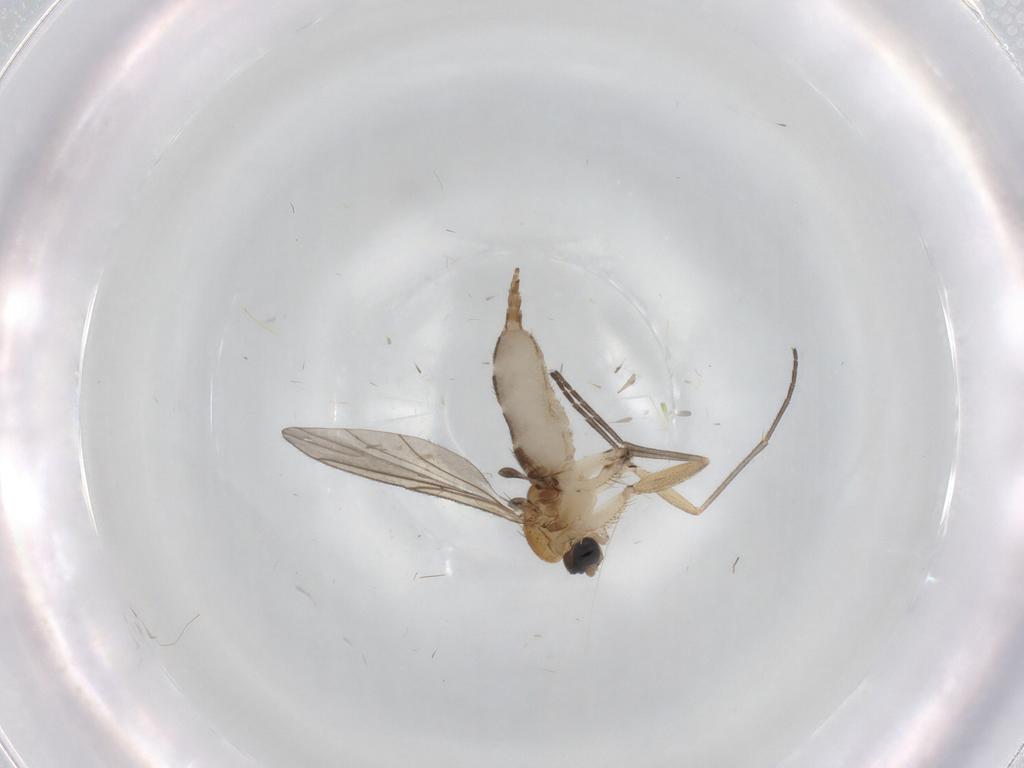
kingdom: Animalia
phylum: Arthropoda
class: Insecta
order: Diptera
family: Sciaridae
